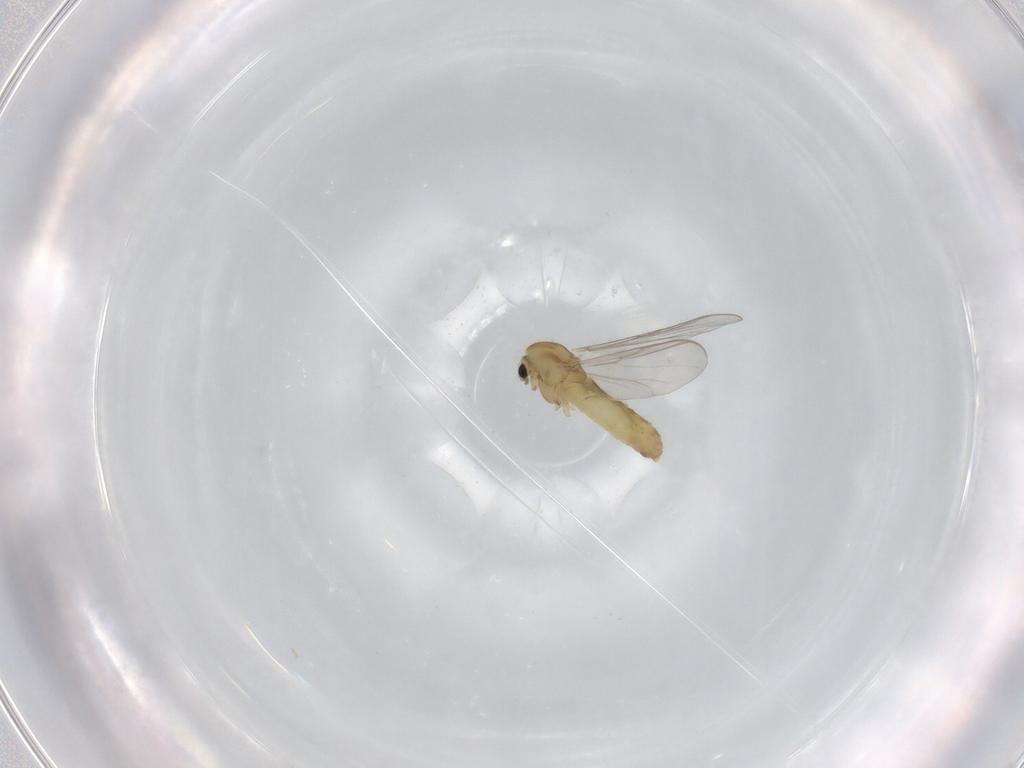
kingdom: Animalia
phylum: Arthropoda
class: Insecta
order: Diptera
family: Chironomidae
